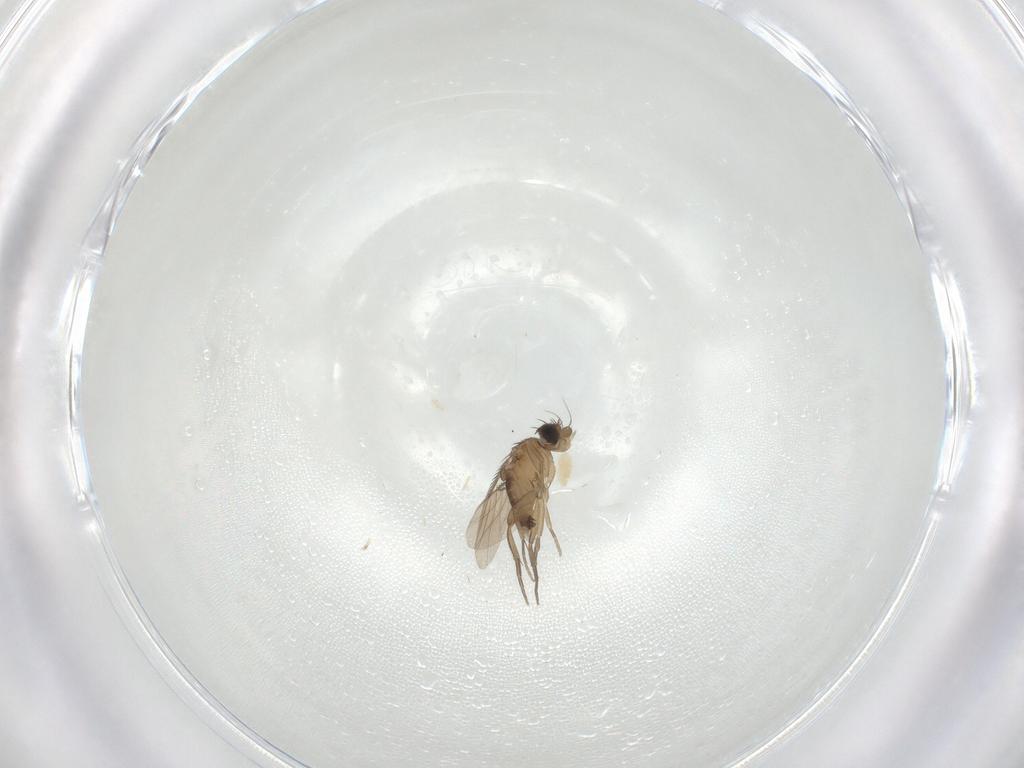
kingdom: Animalia
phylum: Arthropoda
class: Insecta
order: Diptera
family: Phoridae
